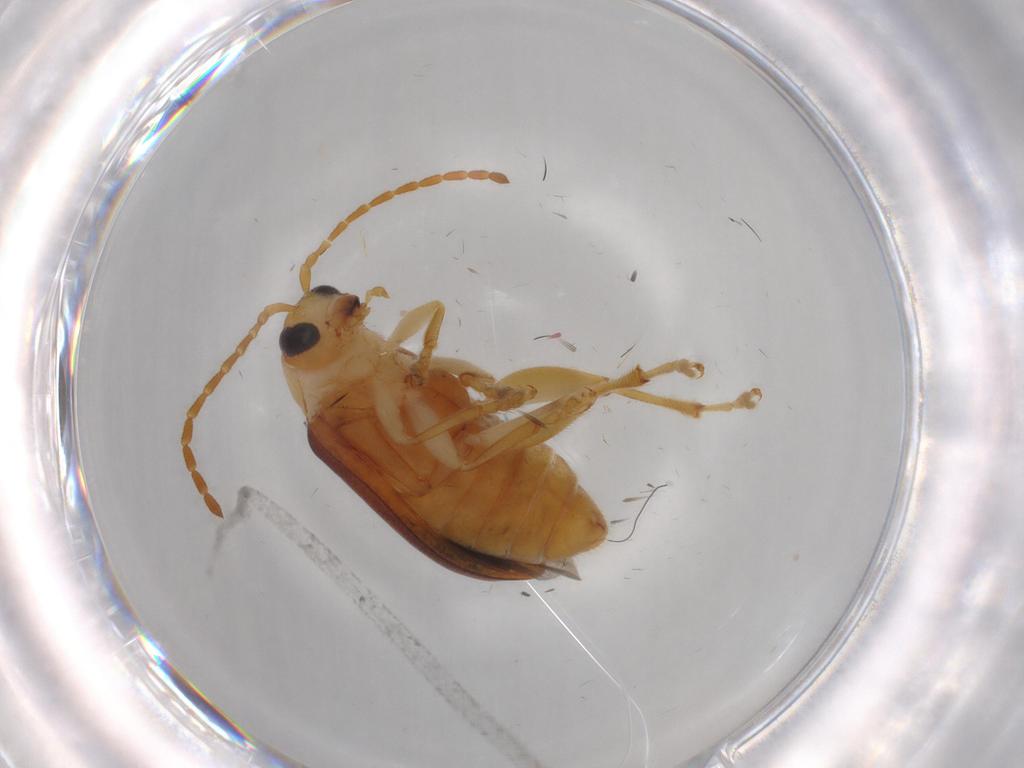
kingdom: Animalia
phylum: Arthropoda
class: Insecta
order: Coleoptera
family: Chrysomelidae
